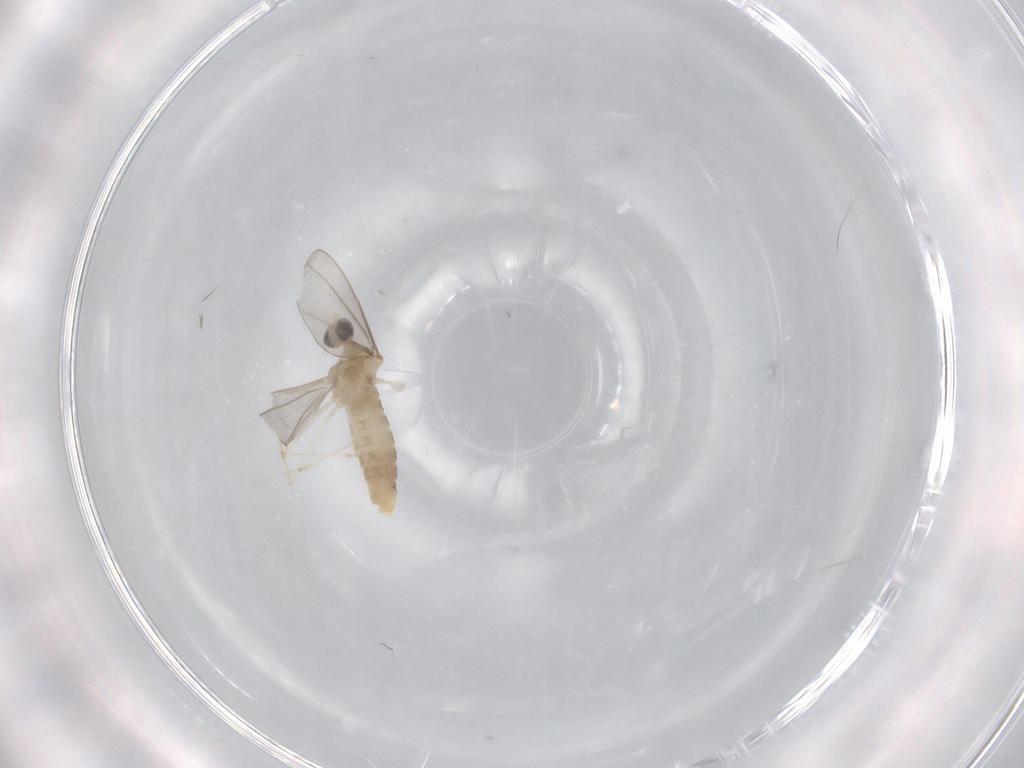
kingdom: Animalia
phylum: Arthropoda
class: Insecta
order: Diptera
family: Cecidomyiidae
